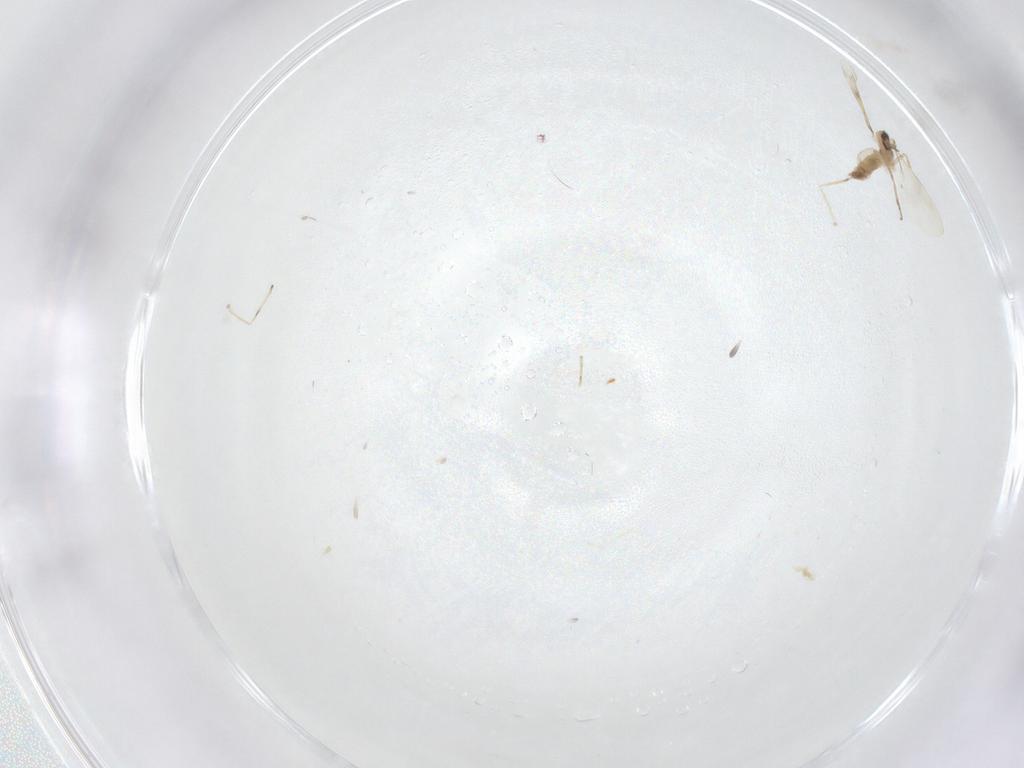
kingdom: Animalia
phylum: Arthropoda
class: Insecta
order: Diptera
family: Cecidomyiidae
